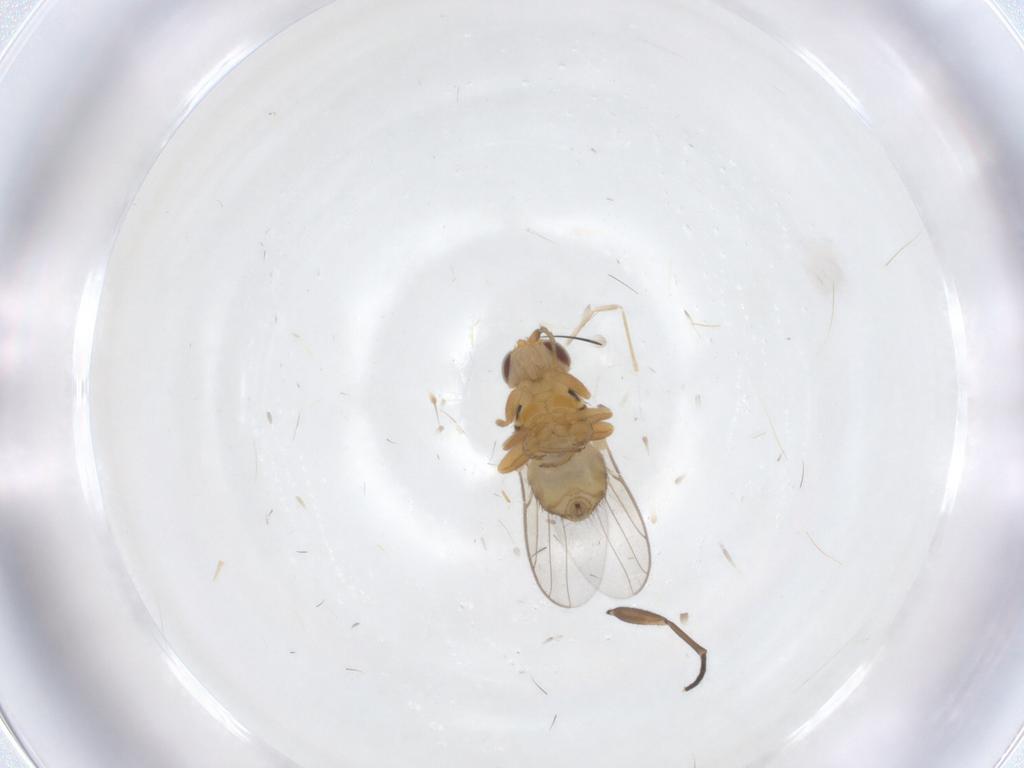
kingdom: Animalia
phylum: Arthropoda
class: Insecta
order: Diptera
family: Chloropidae
